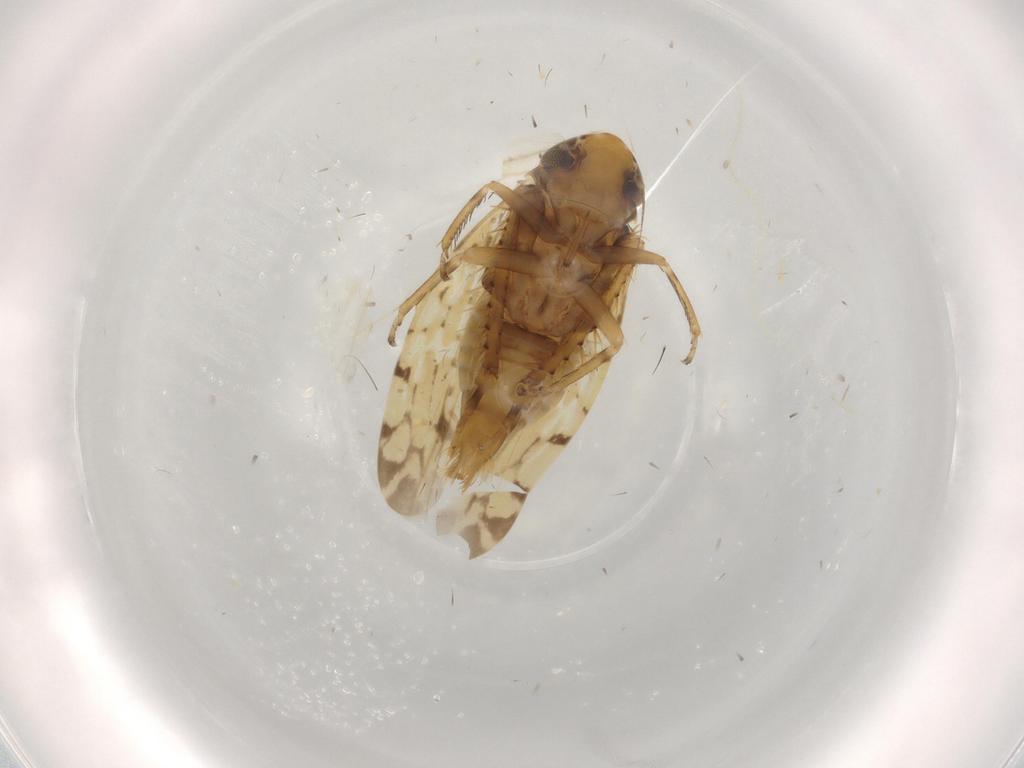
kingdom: Animalia
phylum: Arthropoda
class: Insecta
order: Hemiptera
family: Cicadellidae
